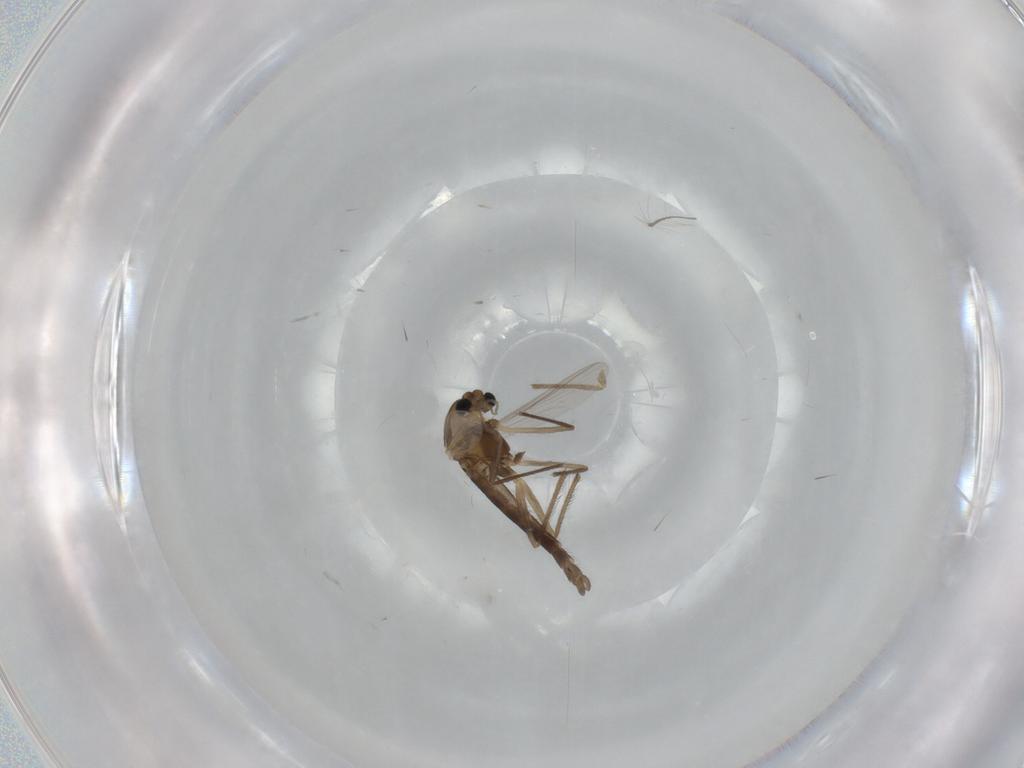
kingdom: Animalia
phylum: Arthropoda
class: Insecta
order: Diptera
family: Chironomidae
